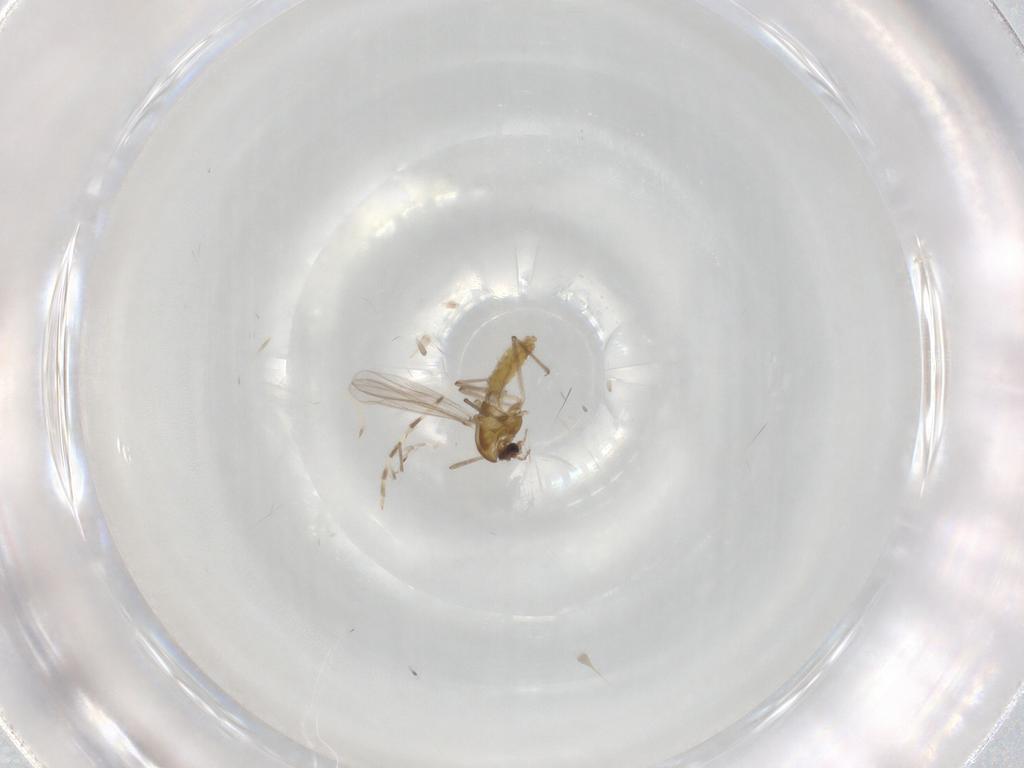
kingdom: Animalia
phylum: Arthropoda
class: Insecta
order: Diptera
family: Chironomidae
